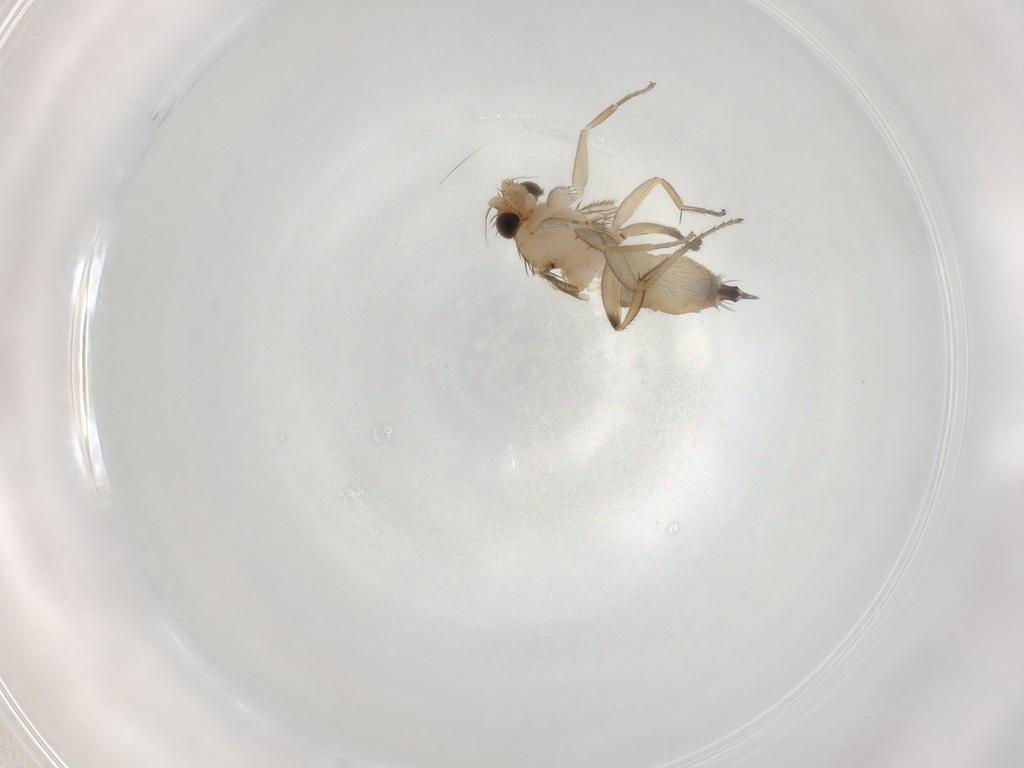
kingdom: Animalia
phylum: Arthropoda
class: Insecta
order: Diptera
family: Phoridae
